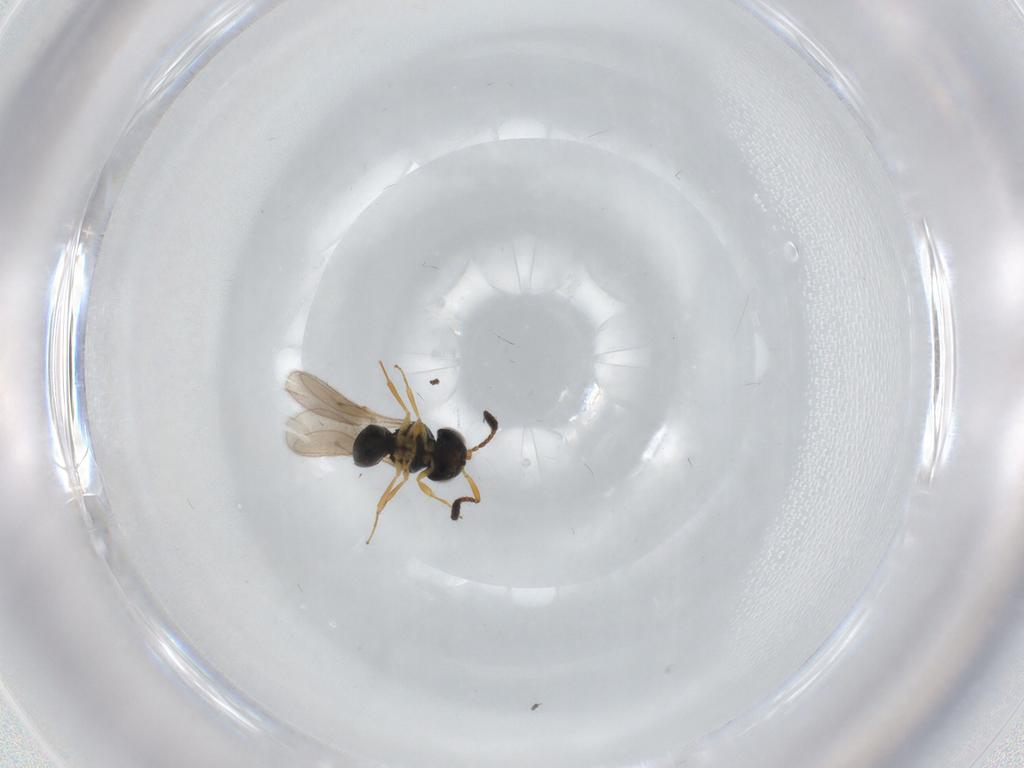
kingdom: Animalia
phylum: Arthropoda
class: Insecta
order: Hymenoptera
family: Scelionidae
